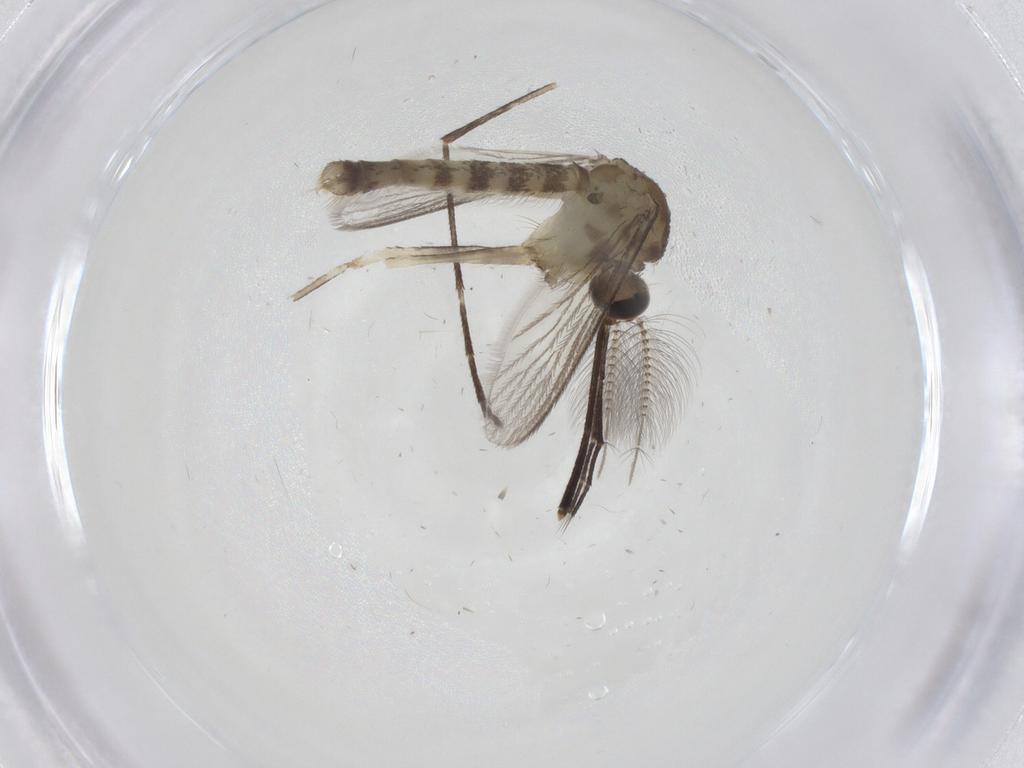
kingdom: Animalia
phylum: Arthropoda
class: Insecta
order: Diptera
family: Culicidae
